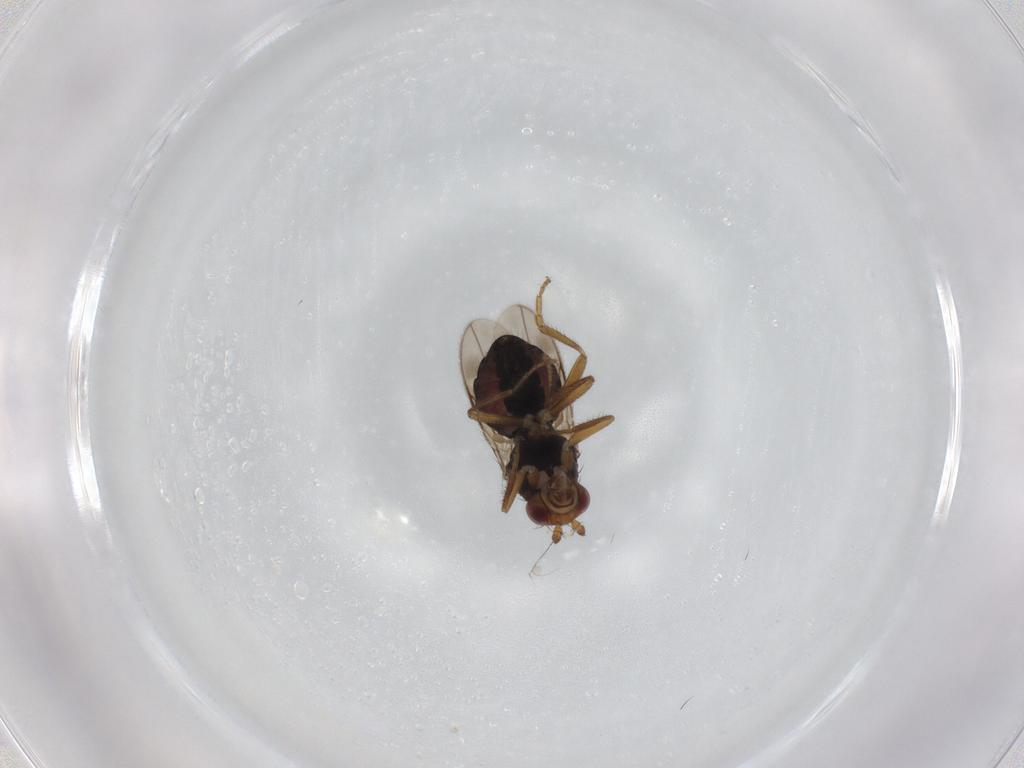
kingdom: Animalia
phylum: Arthropoda
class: Insecta
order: Diptera
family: Sphaeroceridae
